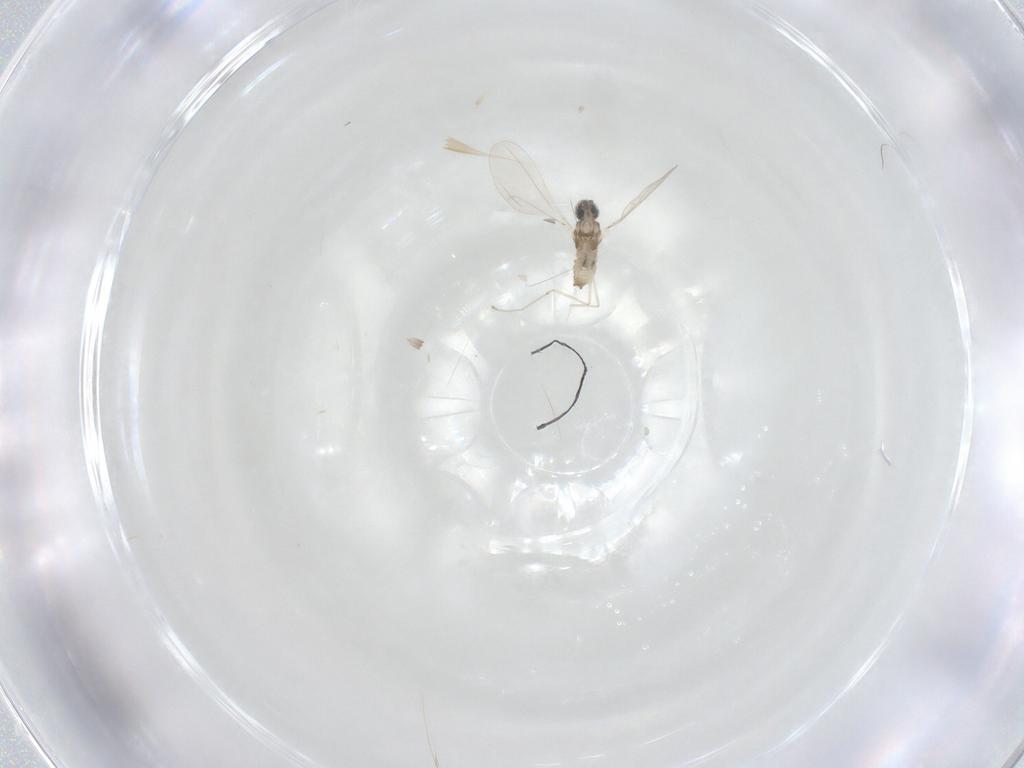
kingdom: Animalia
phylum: Arthropoda
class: Insecta
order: Diptera
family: Cecidomyiidae
